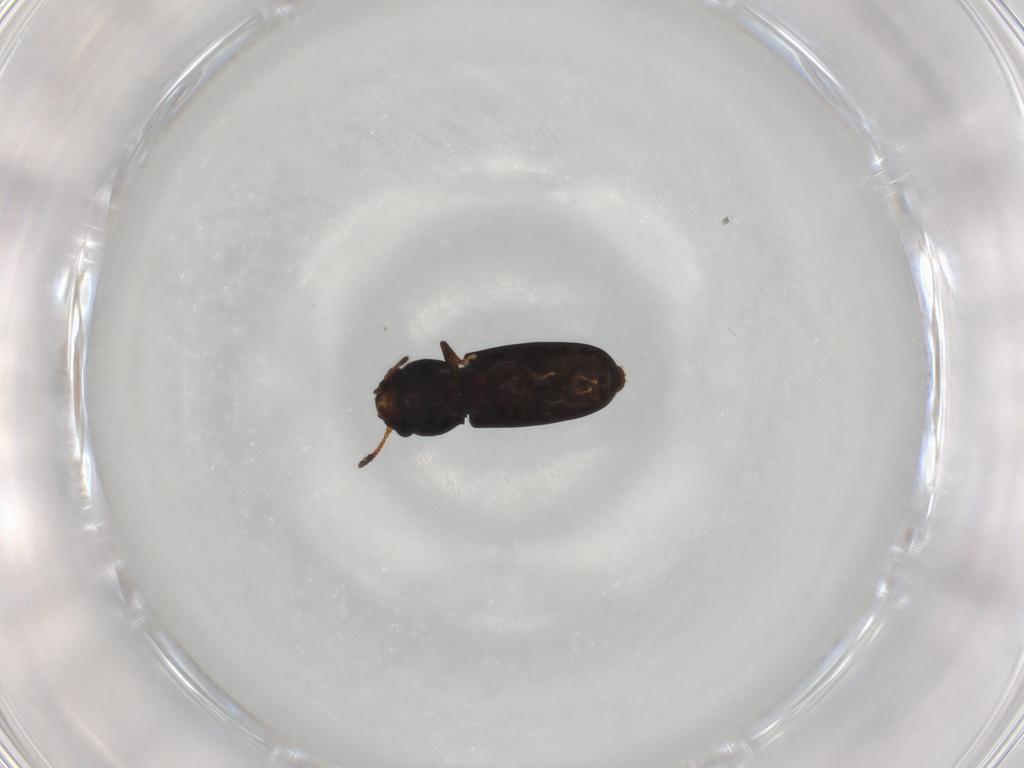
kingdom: Animalia
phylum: Arthropoda
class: Insecta
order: Coleoptera
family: Salpingidae
